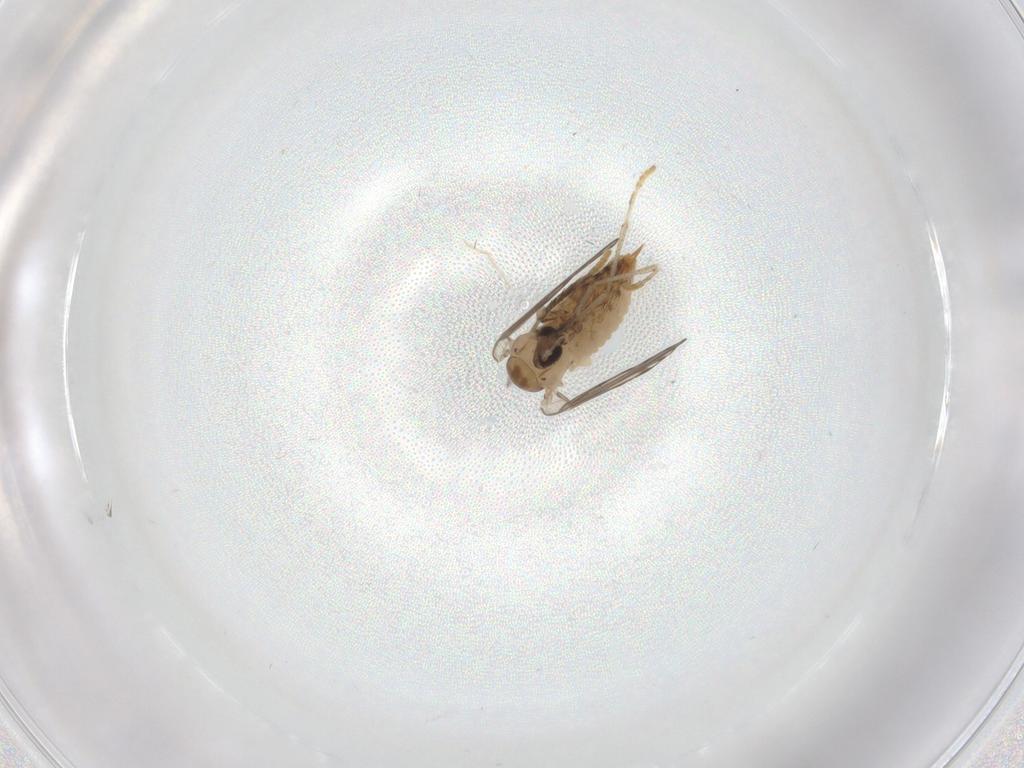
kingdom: Animalia
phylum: Arthropoda
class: Insecta
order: Diptera
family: Psychodidae
